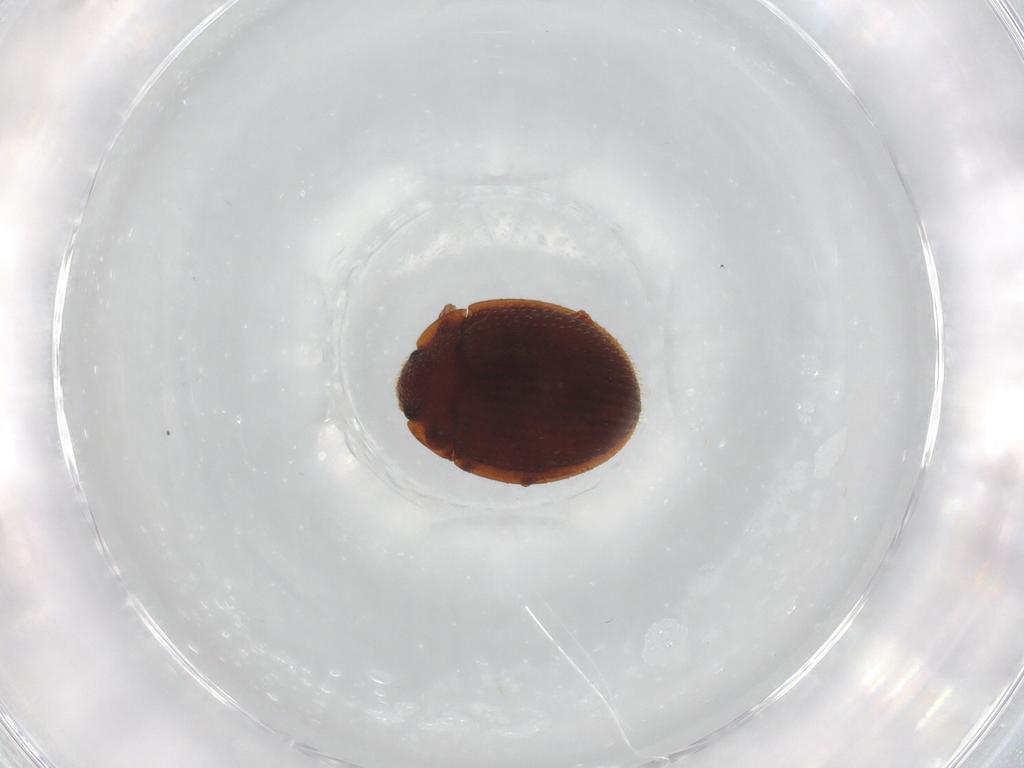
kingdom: Animalia
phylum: Arthropoda
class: Insecta
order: Coleoptera
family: Euxestidae
